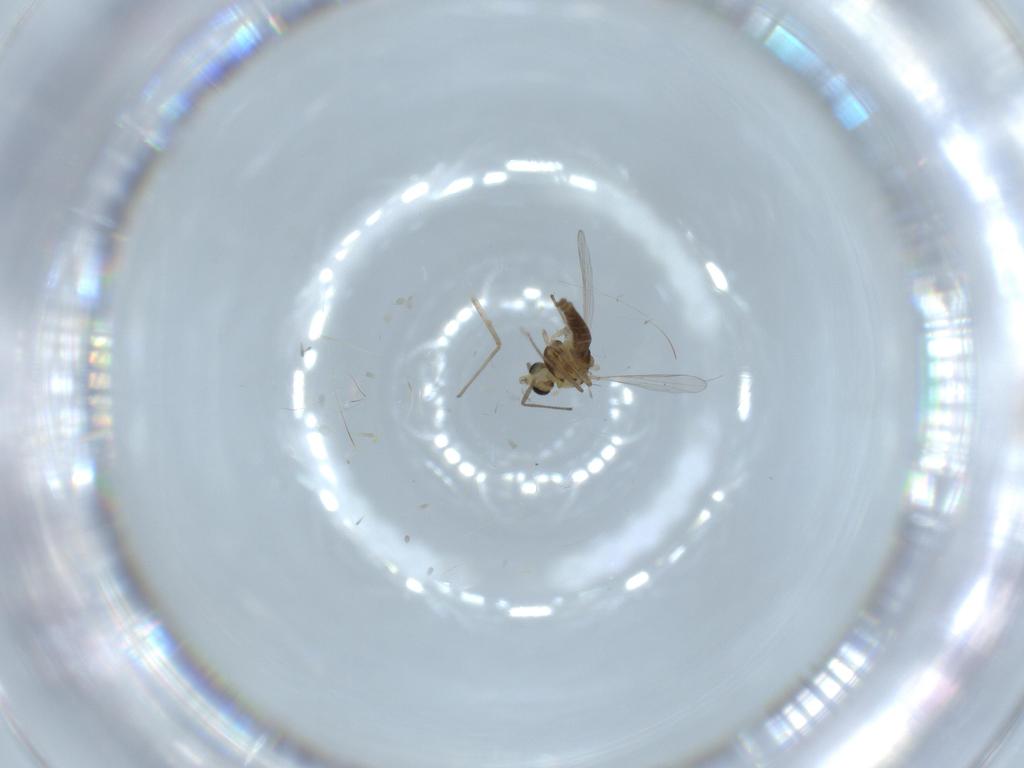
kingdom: Animalia
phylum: Arthropoda
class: Insecta
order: Diptera
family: Chironomidae
